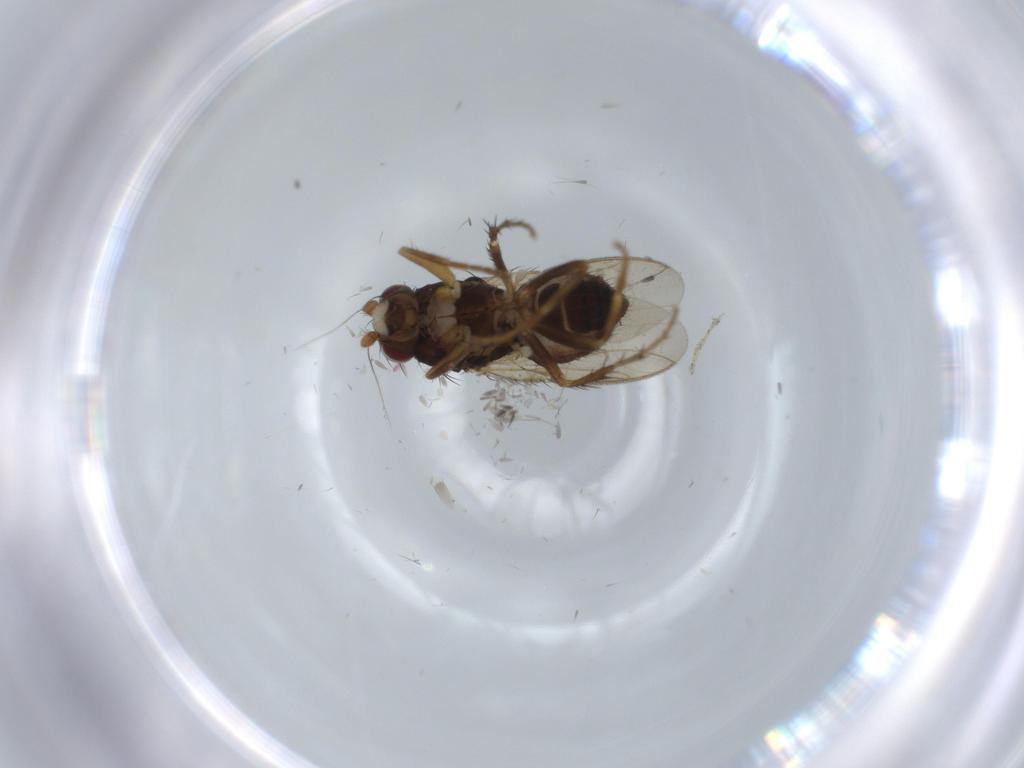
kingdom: Animalia
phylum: Arthropoda
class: Insecta
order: Diptera
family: Sphaeroceridae
